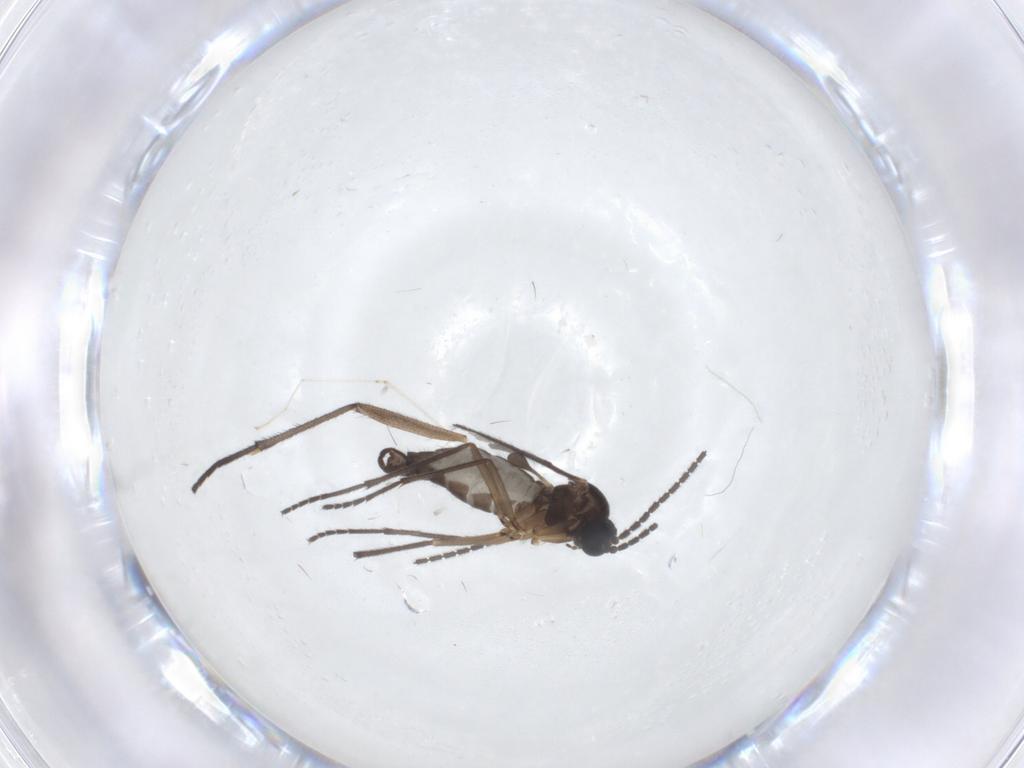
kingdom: Animalia
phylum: Arthropoda
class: Insecta
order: Diptera
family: Sciaridae
